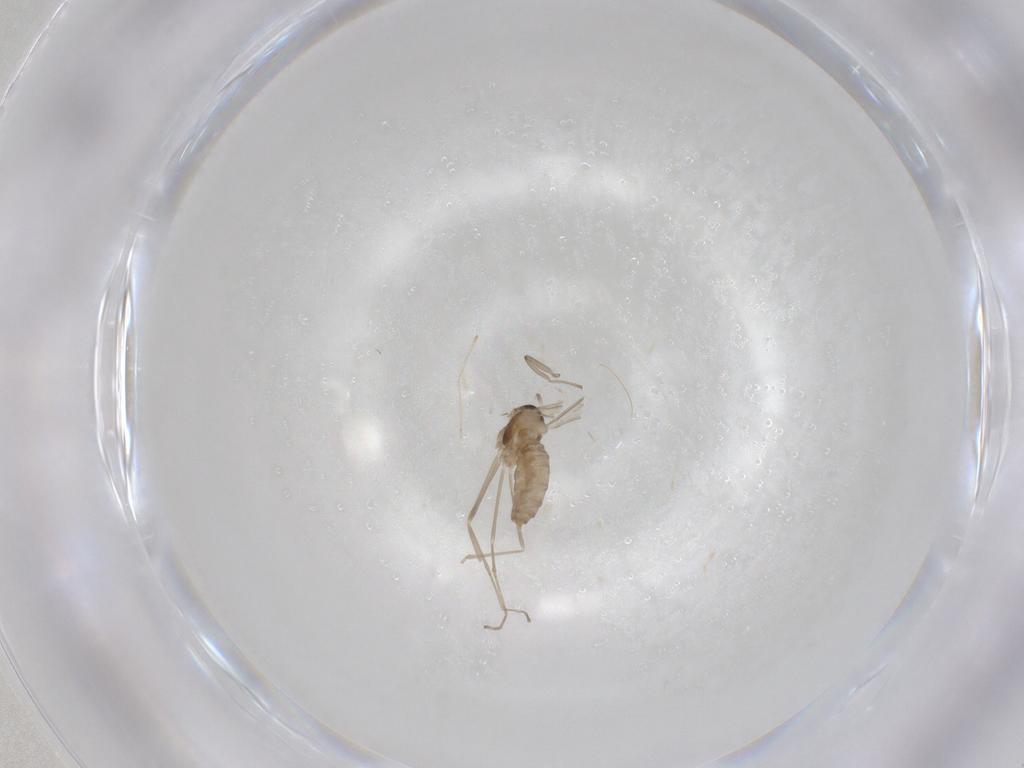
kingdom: Animalia
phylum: Arthropoda
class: Insecta
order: Diptera
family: Cecidomyiidae
